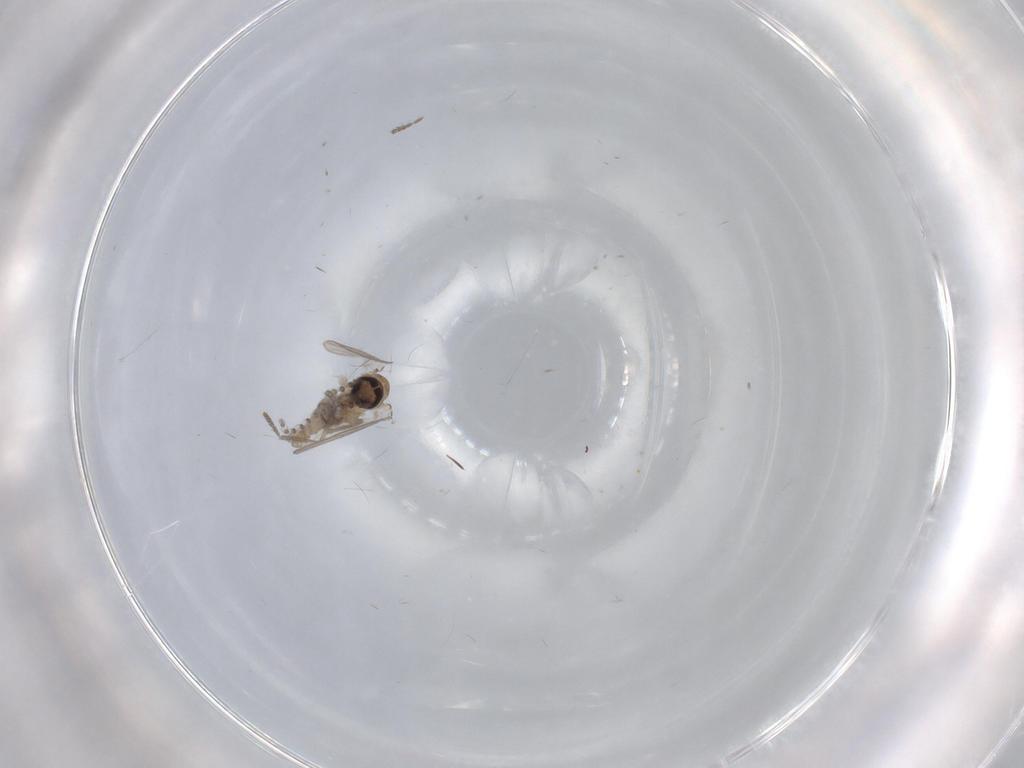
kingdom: Animalia
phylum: Arthropoda
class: Insecta
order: Diptera
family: Psychodidae
